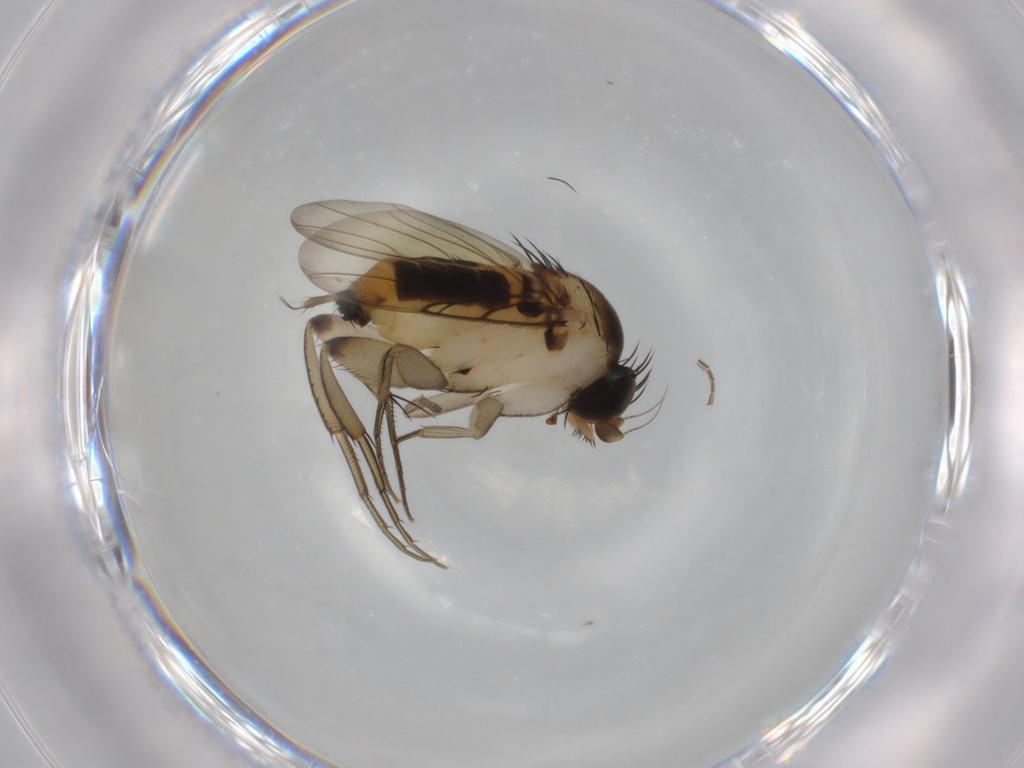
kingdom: Animalia
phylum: Arthropoda
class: Insecta
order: Diptera
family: Phoridae
